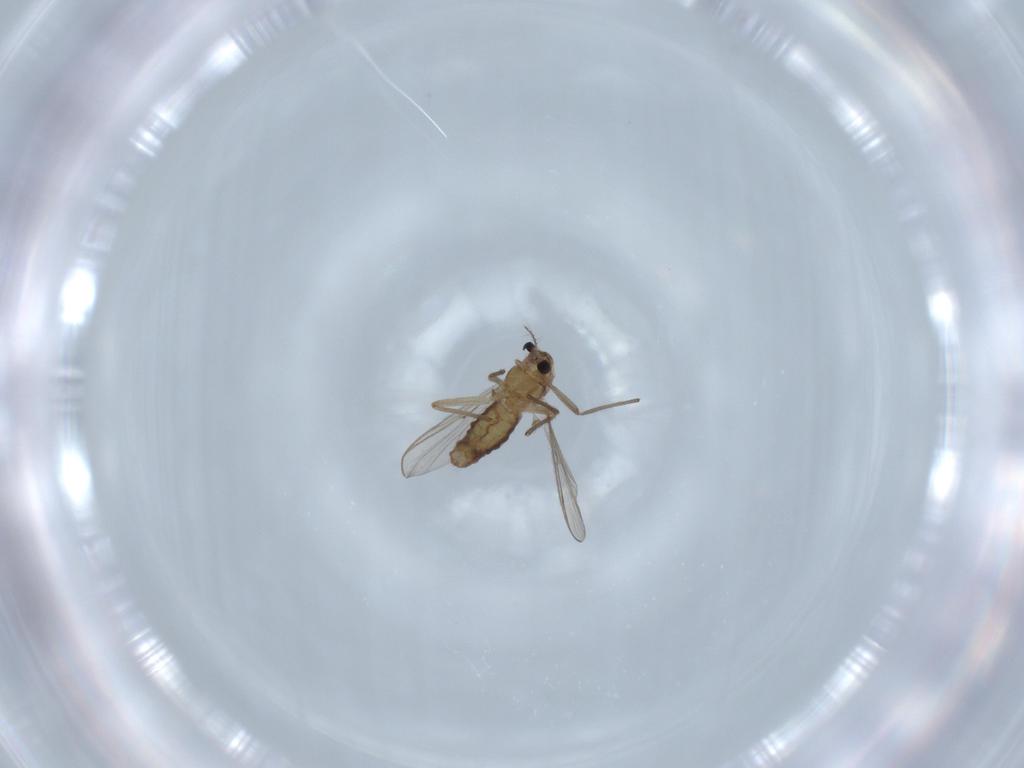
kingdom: Animalia
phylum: Arthropoda
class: Insecta
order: Diptera
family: Chironomidae
